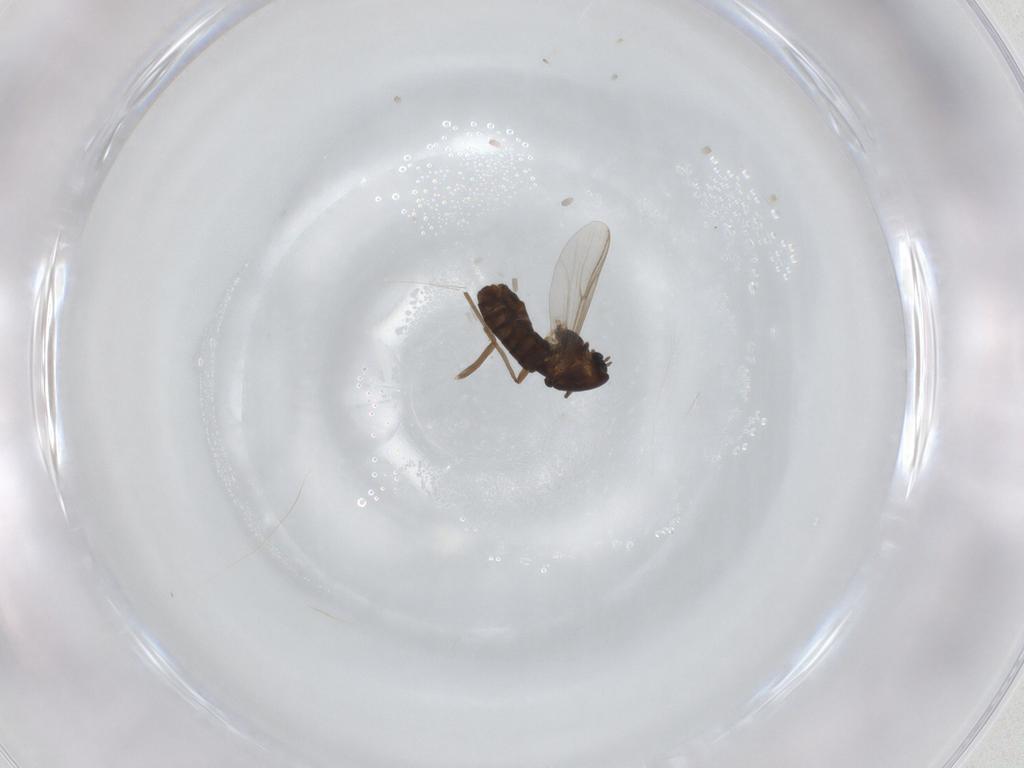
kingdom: Animalia
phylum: Arthropoda
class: Insecta
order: Diptera
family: Chironomidae
